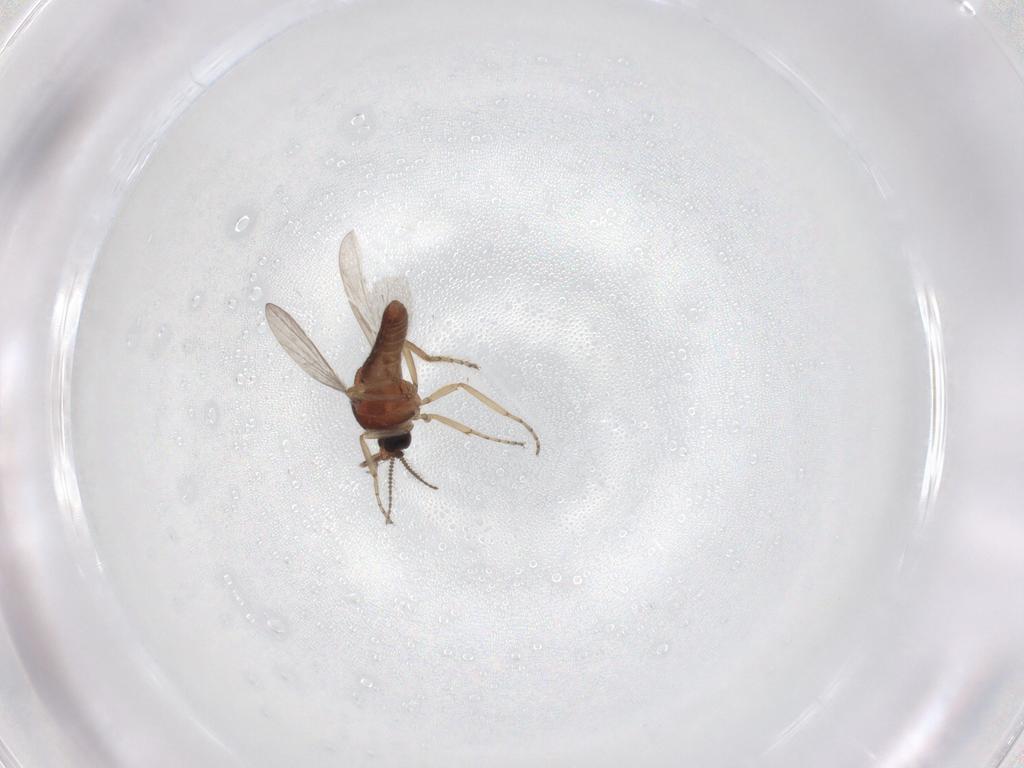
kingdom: Animalia
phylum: Arthropoda
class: Insecta
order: Diptera
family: Ceratopogonidae
